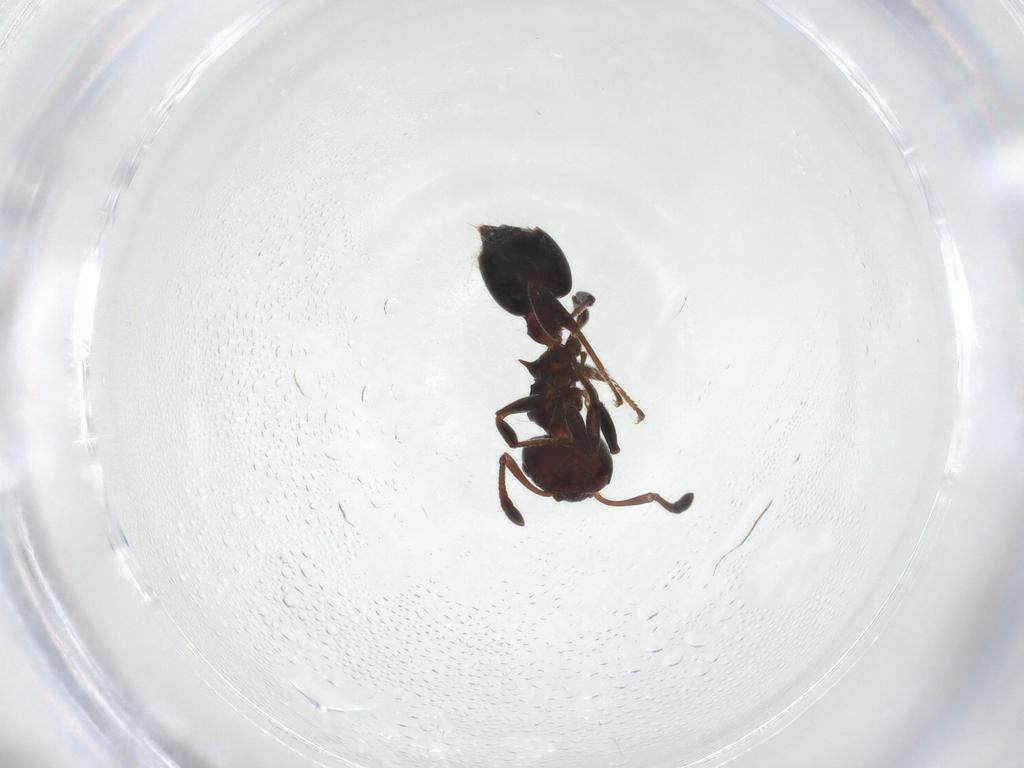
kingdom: Animalia
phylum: Arthropoda
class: Insecta
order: Hymenoptera
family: Formicidae
